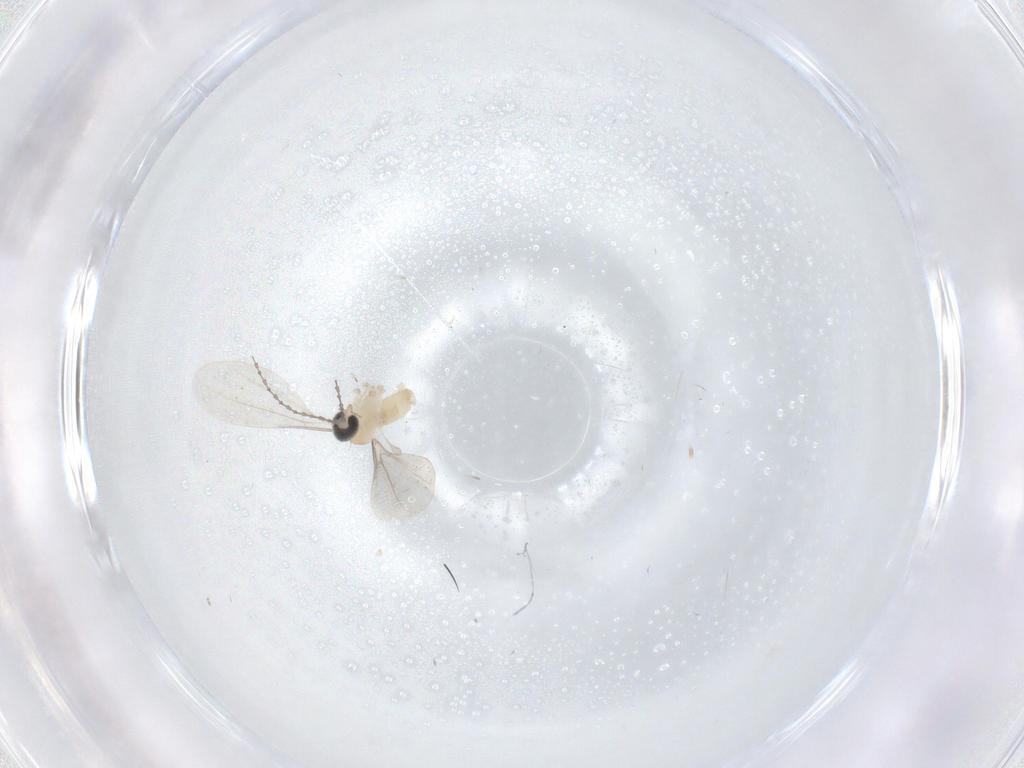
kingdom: Animalia
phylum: Arthropoda
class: Insecta
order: Diptera
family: Cecidomyiidae
